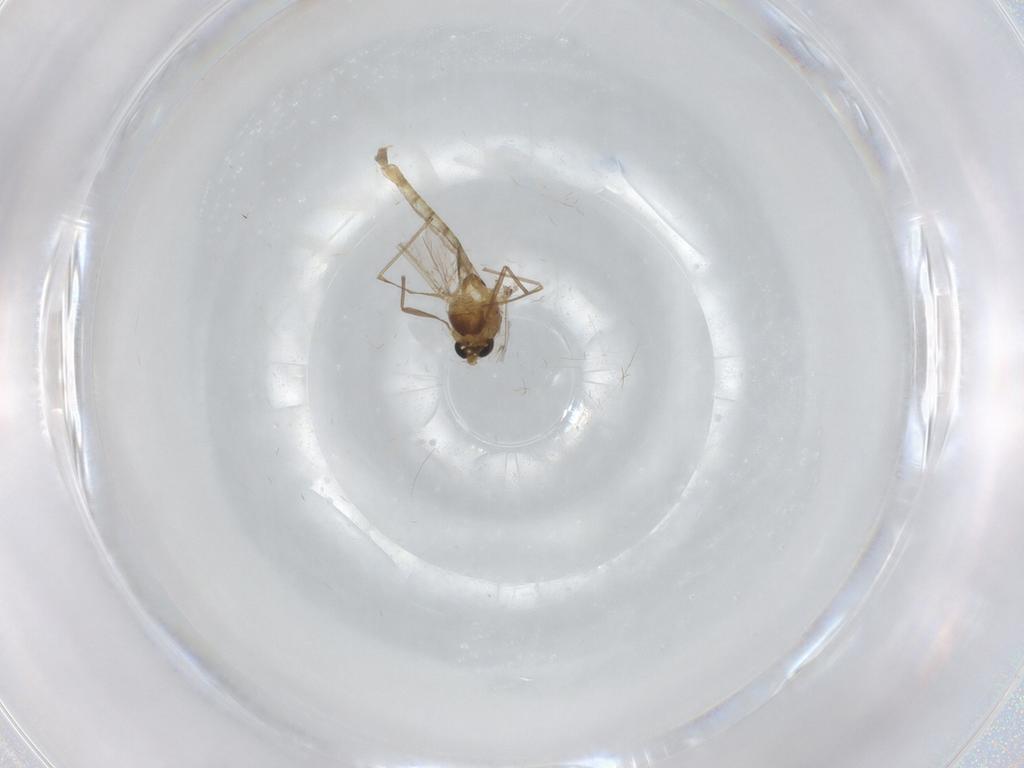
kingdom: Animalia
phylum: Arthropoda
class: Insecta
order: Diptera
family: Chironomidae
